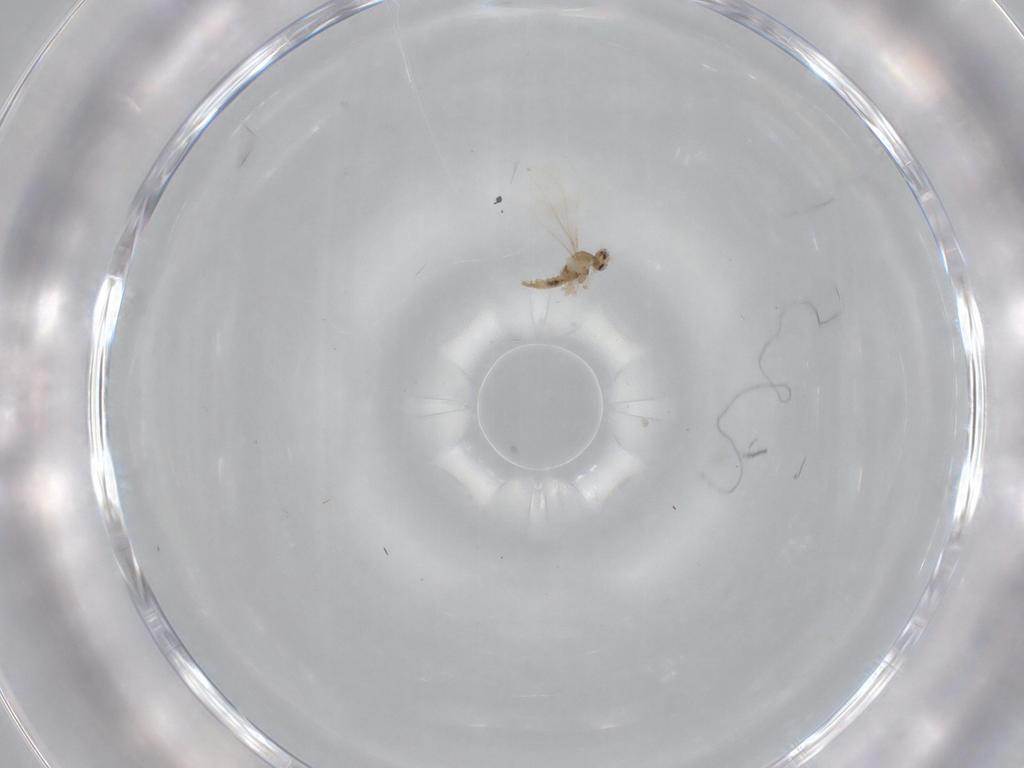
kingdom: Animalia
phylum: Arthropoda
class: Insecta
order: Diptera
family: Cecidomyiidae
